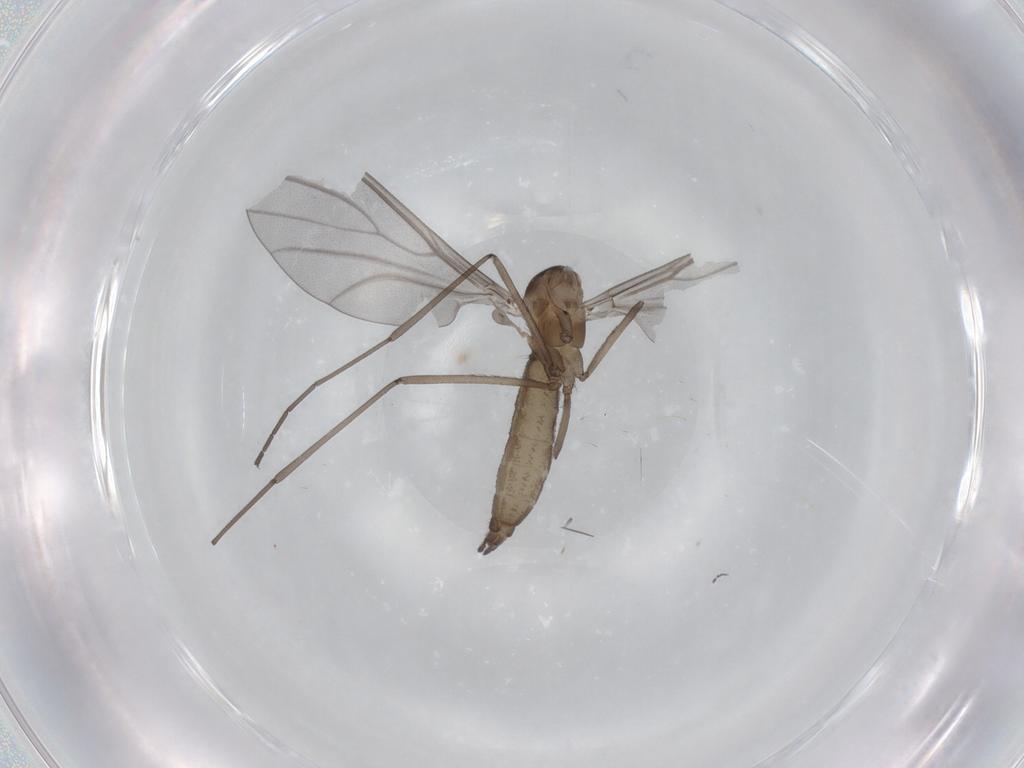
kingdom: Animalia
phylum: Arthropoda
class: Insecta
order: Diptera
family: Cecidomyiidae
